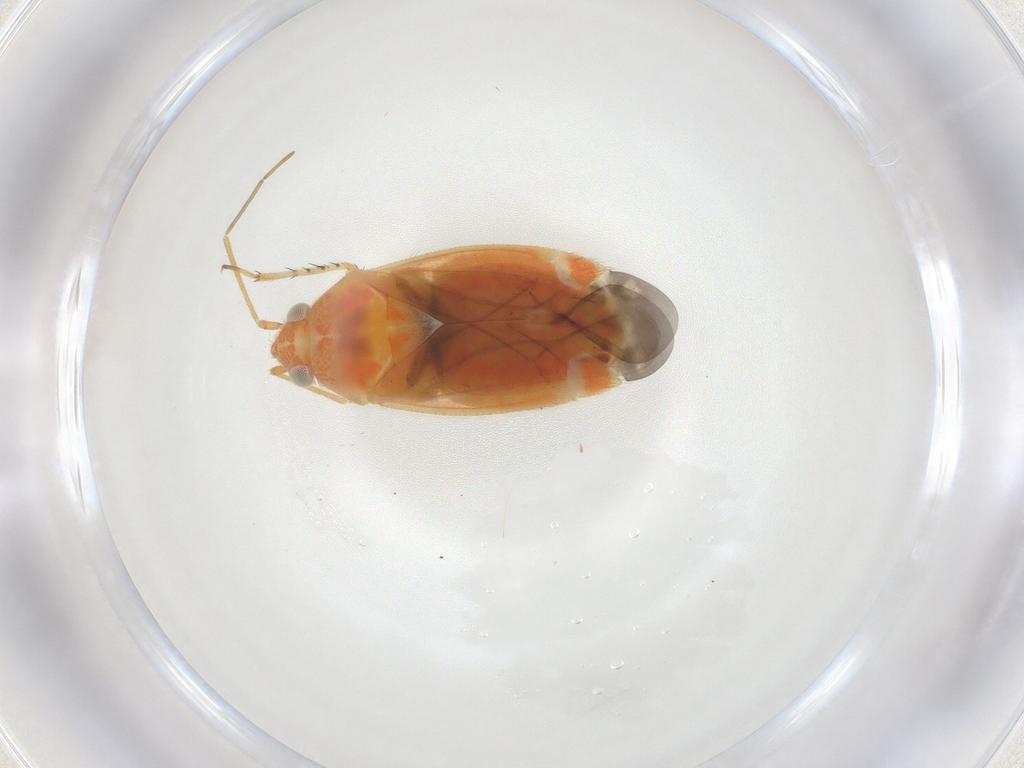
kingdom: Animalia
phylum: Arthropoda
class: Insecta
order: Hemiptera
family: Miridae
